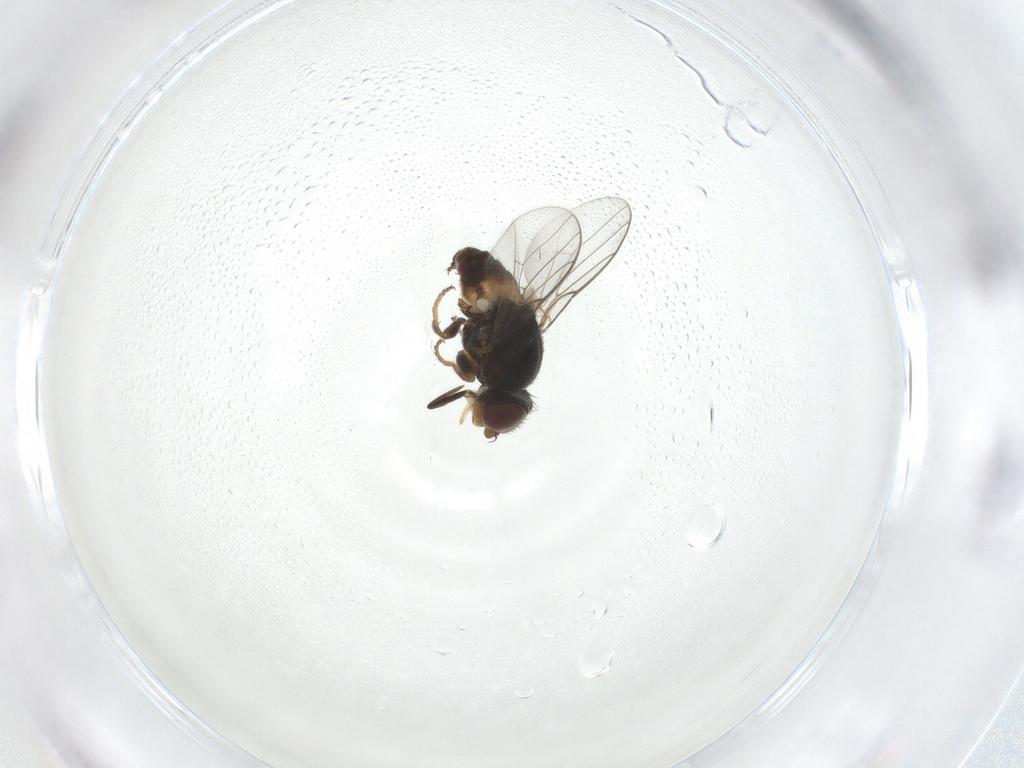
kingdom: Animalia
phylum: Arthropoda
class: Insecta
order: Diptera
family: Chloropidae
